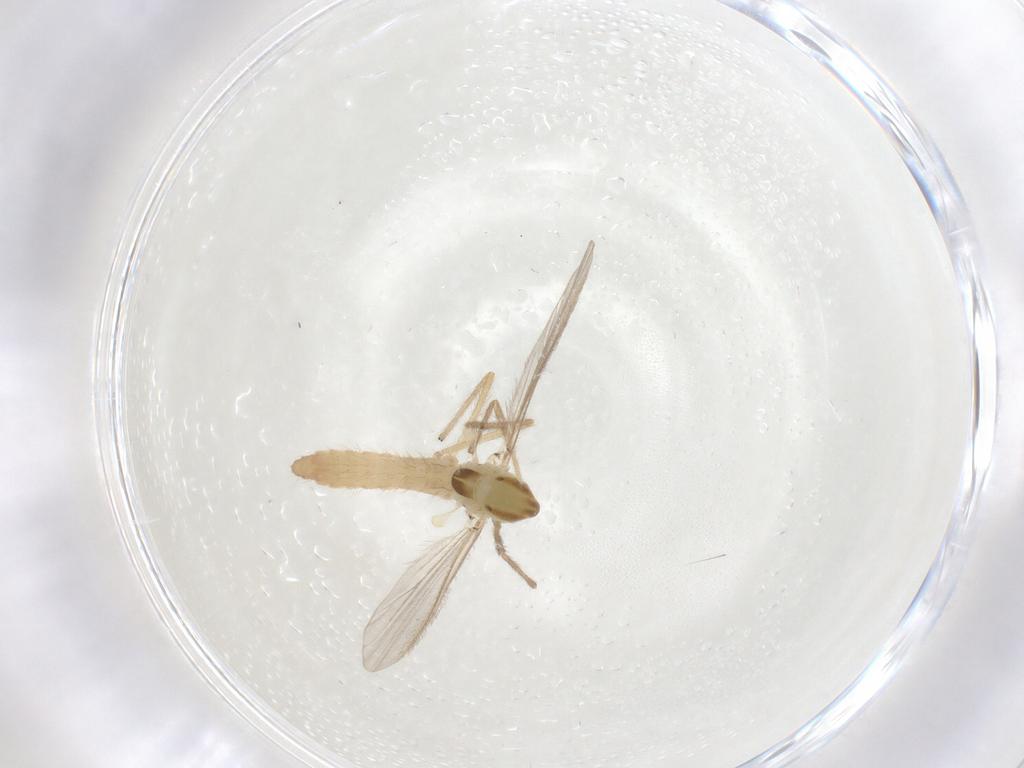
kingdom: Animalia
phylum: Arthropoda
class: Insecta
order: Diptera
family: Chironomidae
